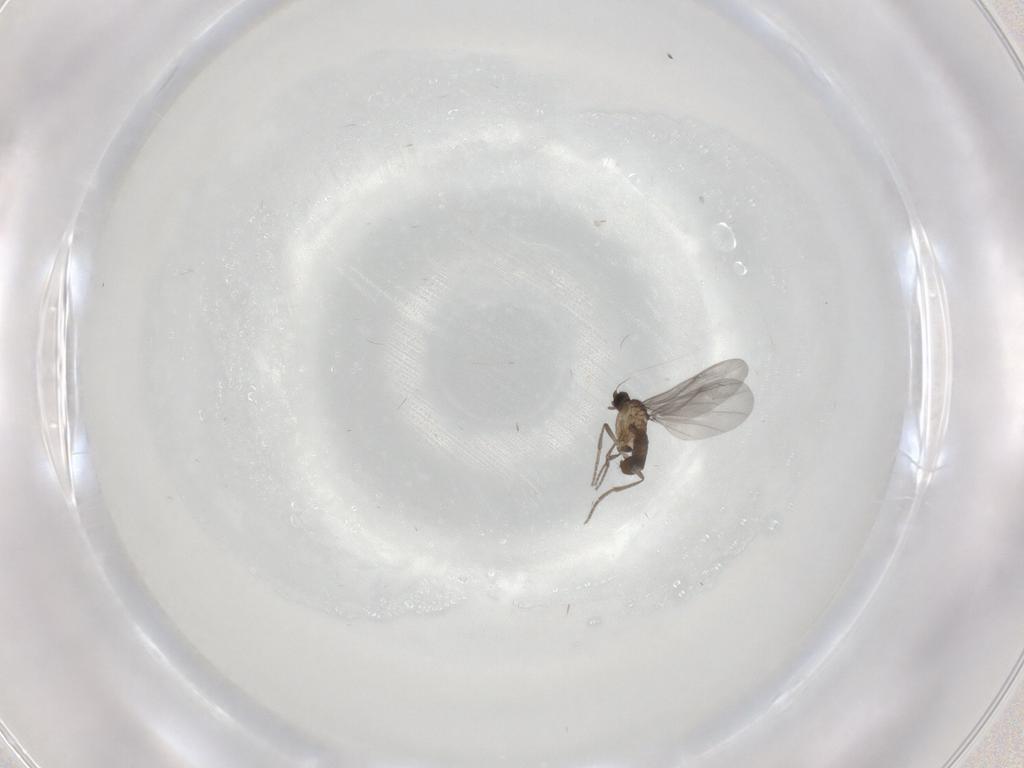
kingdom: Animalia
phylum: Arthropoda
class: Insecta
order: Diptera
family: Phoridae
